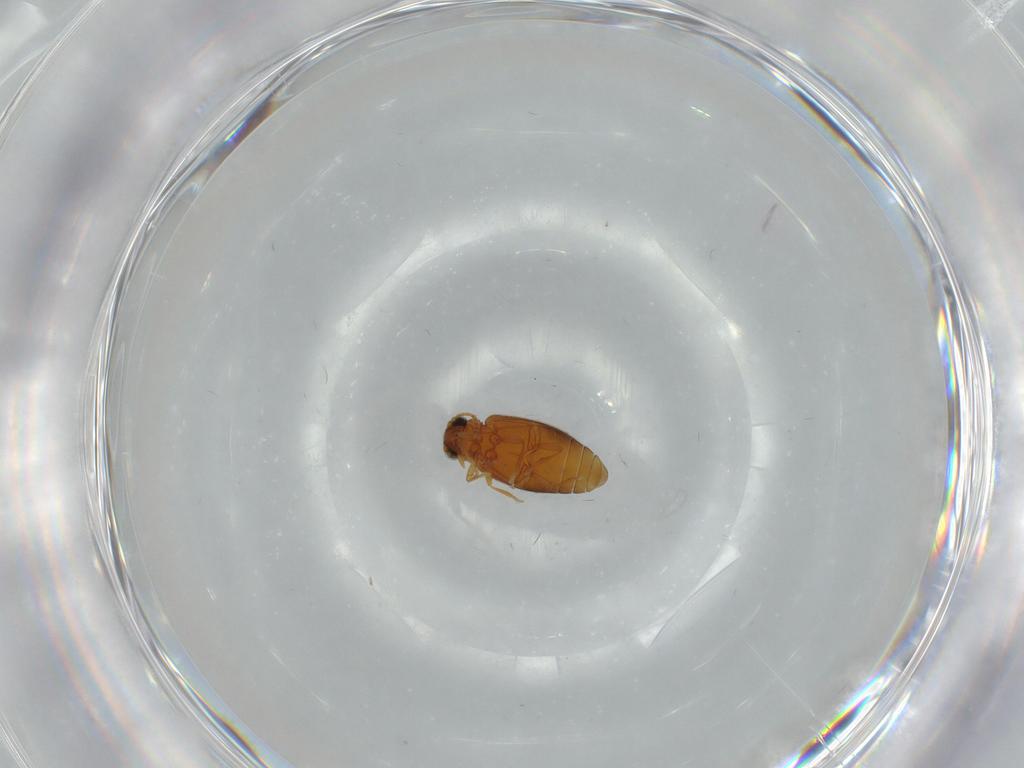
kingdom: Animalia
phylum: Arthropoda
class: Insecta
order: Coleoptera
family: Aderidae
